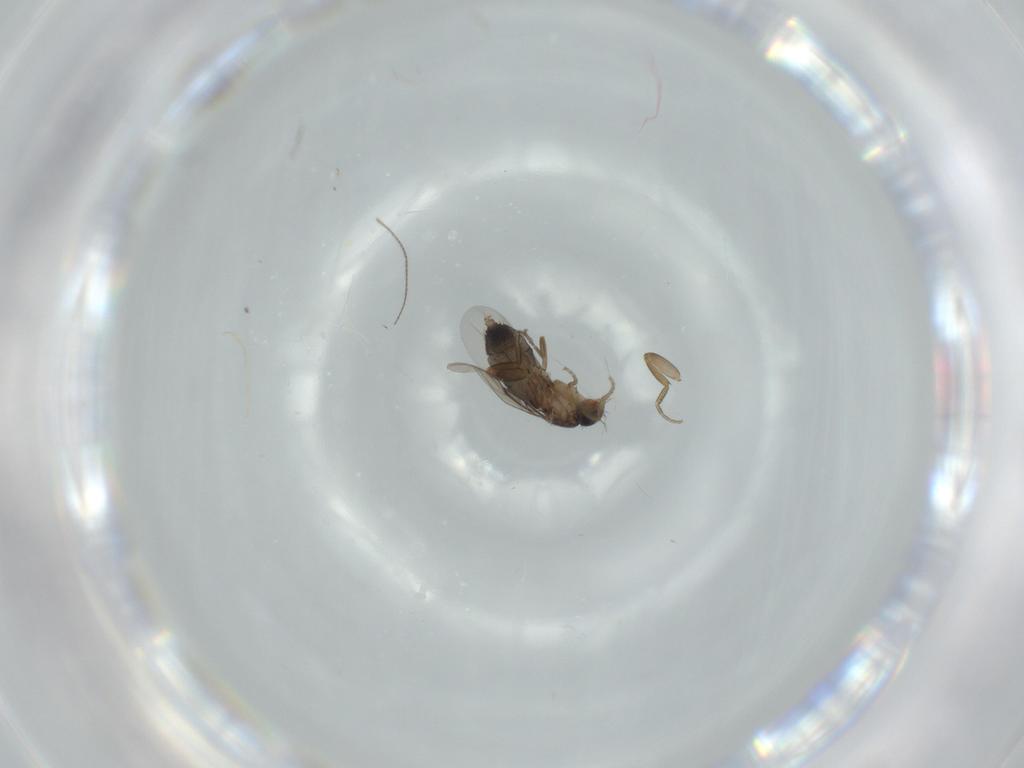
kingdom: Animalia
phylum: Arthropoda
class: Insecta
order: Diptera
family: Phoridae
